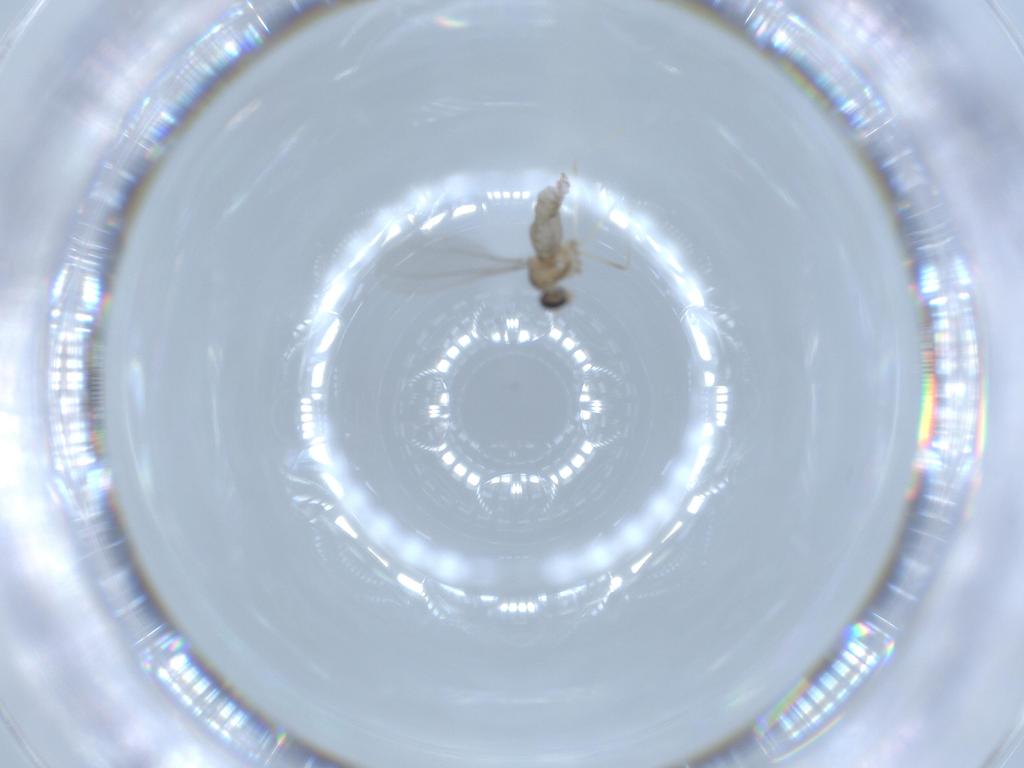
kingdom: Animalia
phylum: Arthropoda
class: Insecta
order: Diptera
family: Cecidomyiidae
